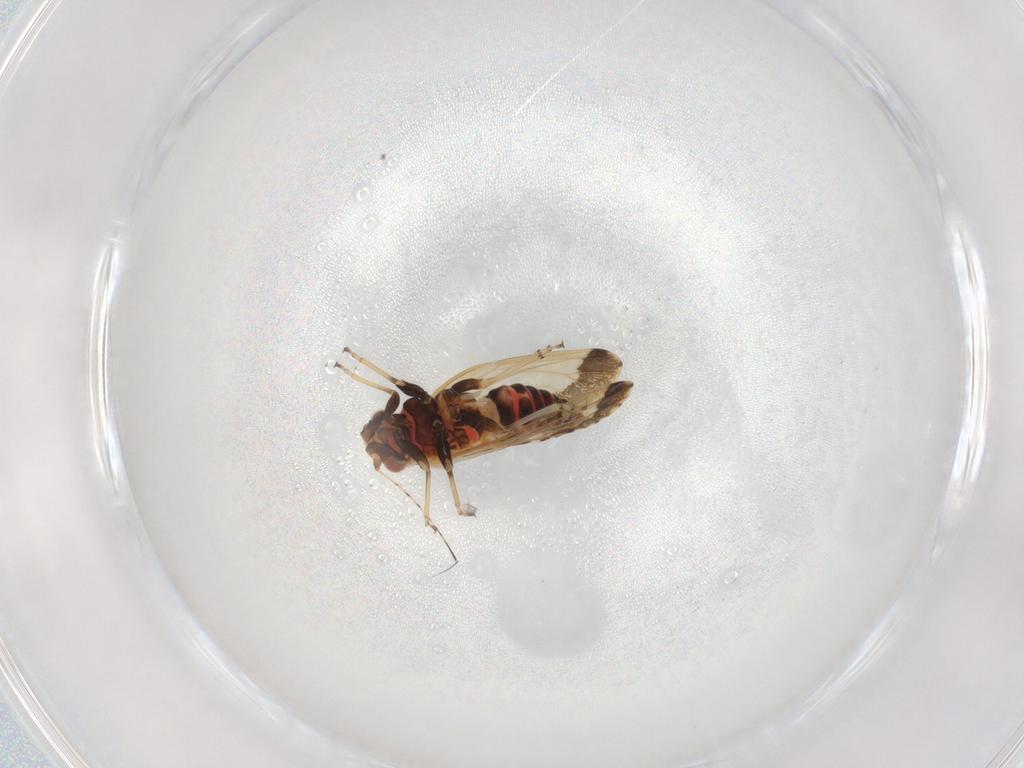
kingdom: Animalia
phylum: Arthropoda
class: Insecta
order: Hemiptera
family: Psyllidae
